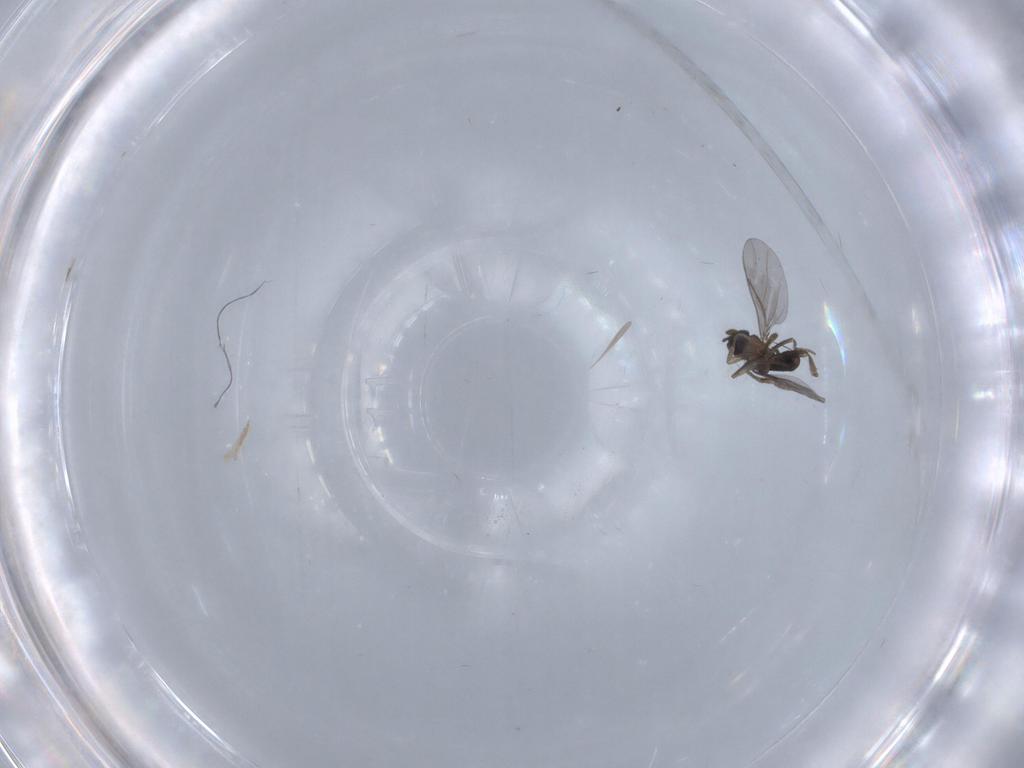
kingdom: Animalia
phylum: Arthropoda
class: Insecta
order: Diptera
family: Chironomidae
